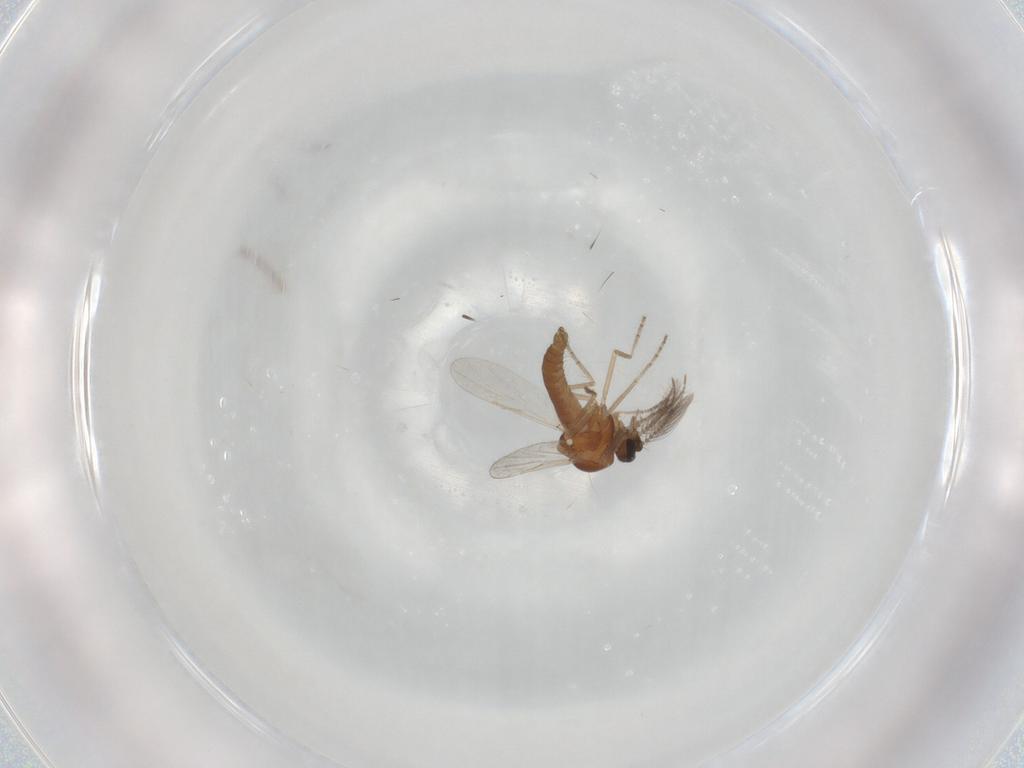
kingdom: Animalia
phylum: Arthropoda
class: Insecta
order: Diptera
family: Ceratopogonidae
